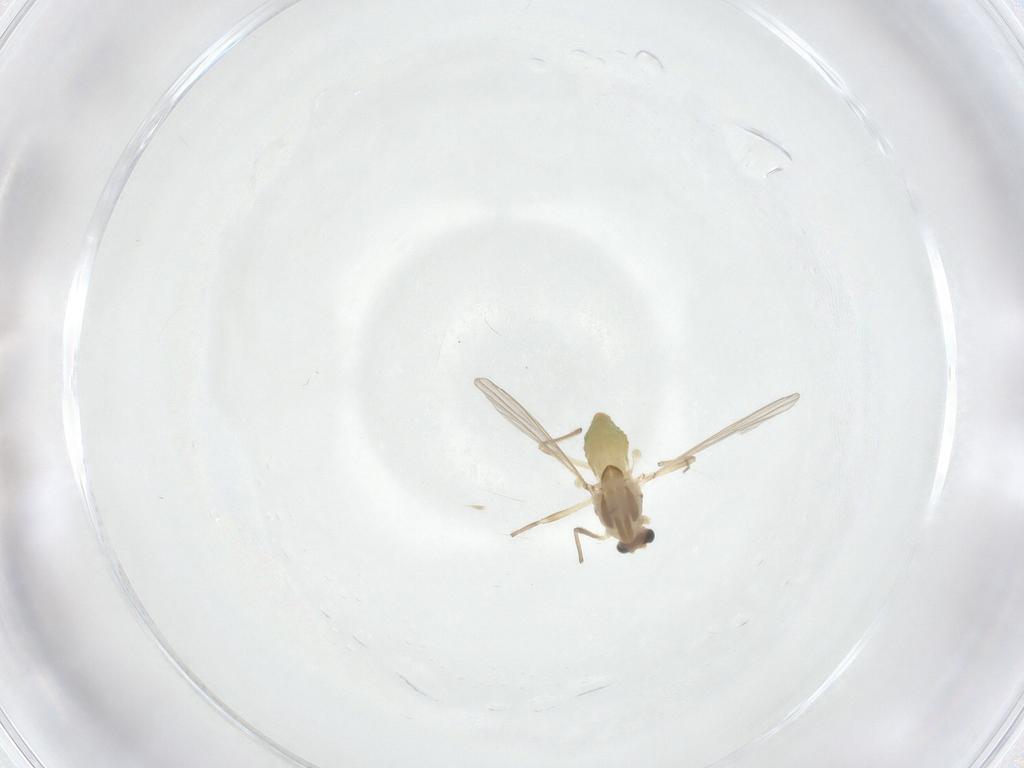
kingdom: Animalia
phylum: Arthropoda
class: Insecta
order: Diptera
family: Chironomidae
